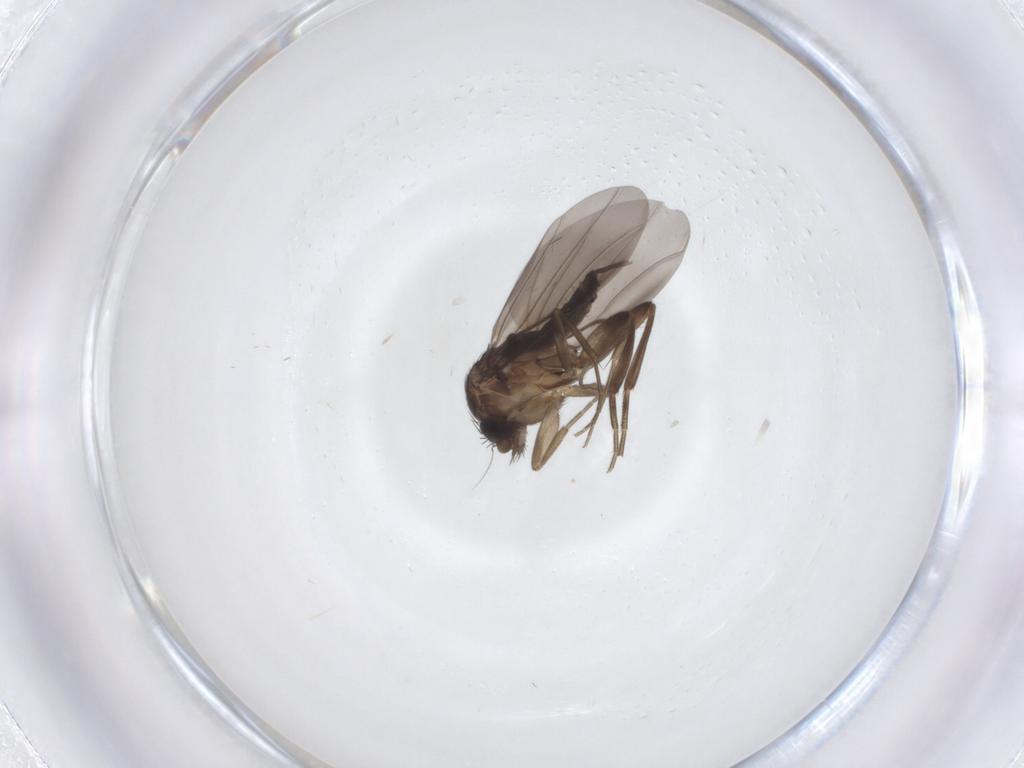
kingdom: Animalia
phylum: Arthropoda
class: Insecta
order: Diptera
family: Phoridae
